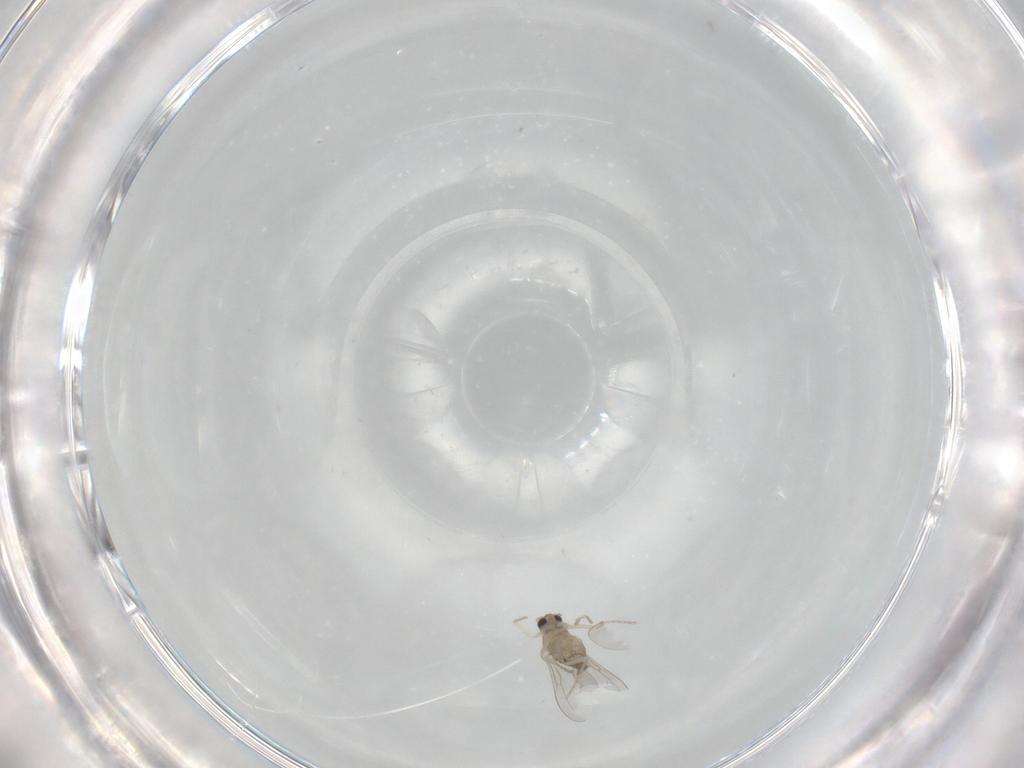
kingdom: Animalia
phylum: Arthropoda
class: Insecta
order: Diptera
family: Cecidomyiidae
